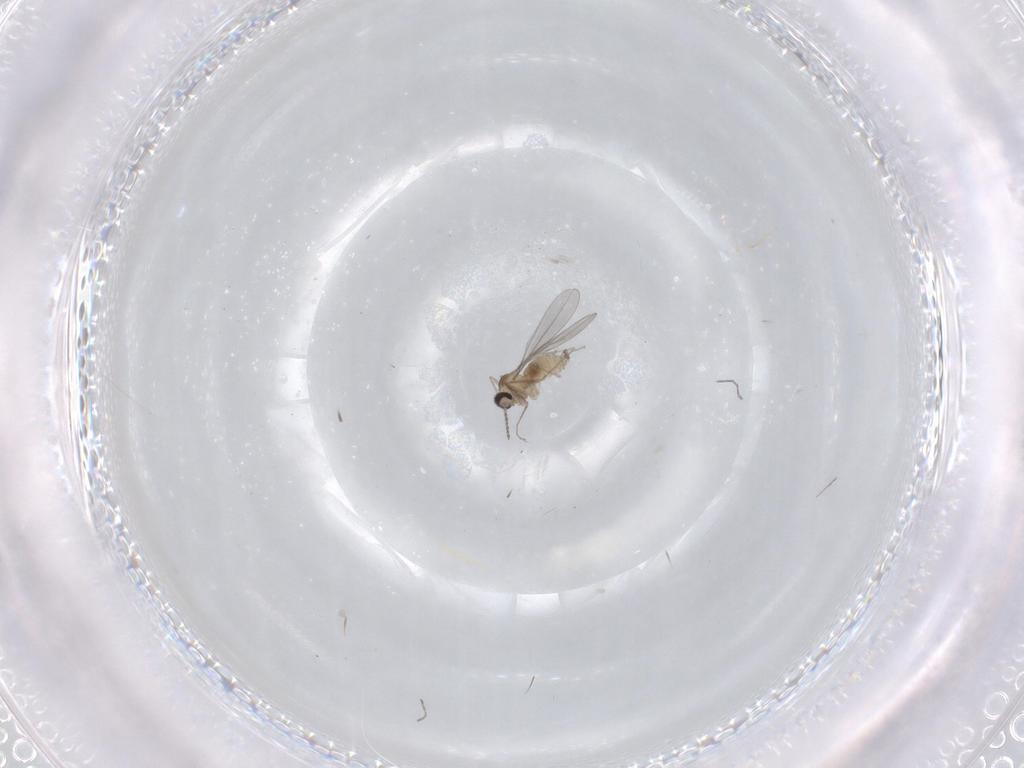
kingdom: Animalia
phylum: Arthropoda
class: Insecta
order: Diptera
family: Cecidomyiidae
